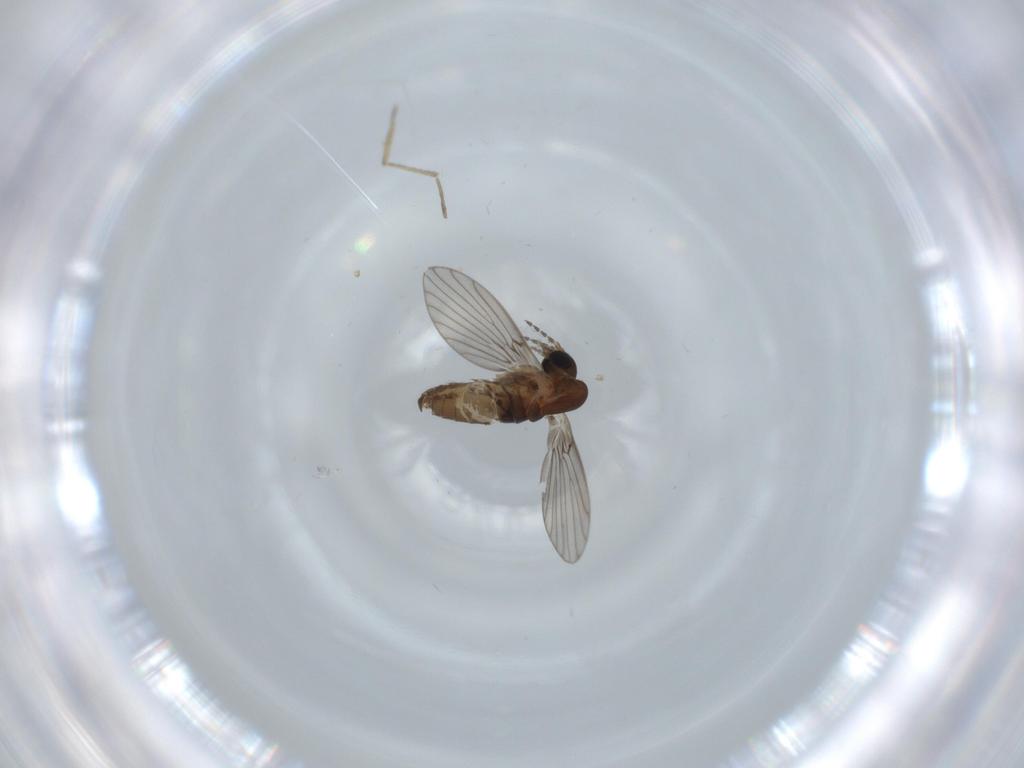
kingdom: Animalia
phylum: Arthropoda
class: Insecta
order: Diptera
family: Psychodidae
